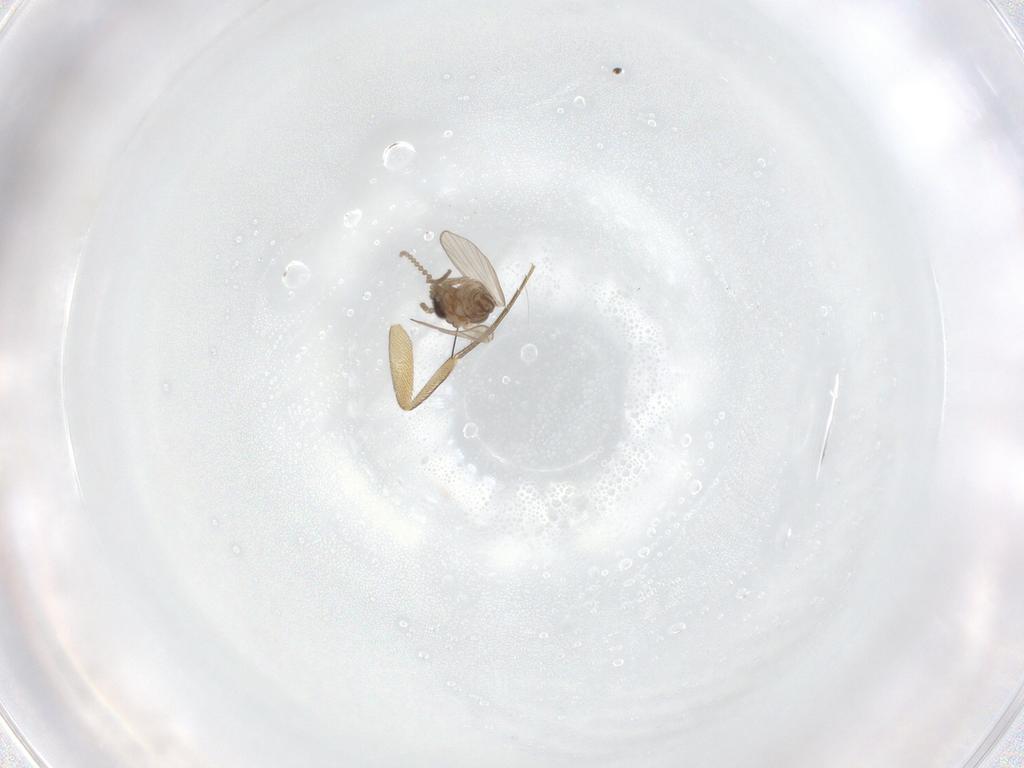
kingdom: Animalia
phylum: Arthropoda
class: Insecta
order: Diptera
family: Psychodidae
